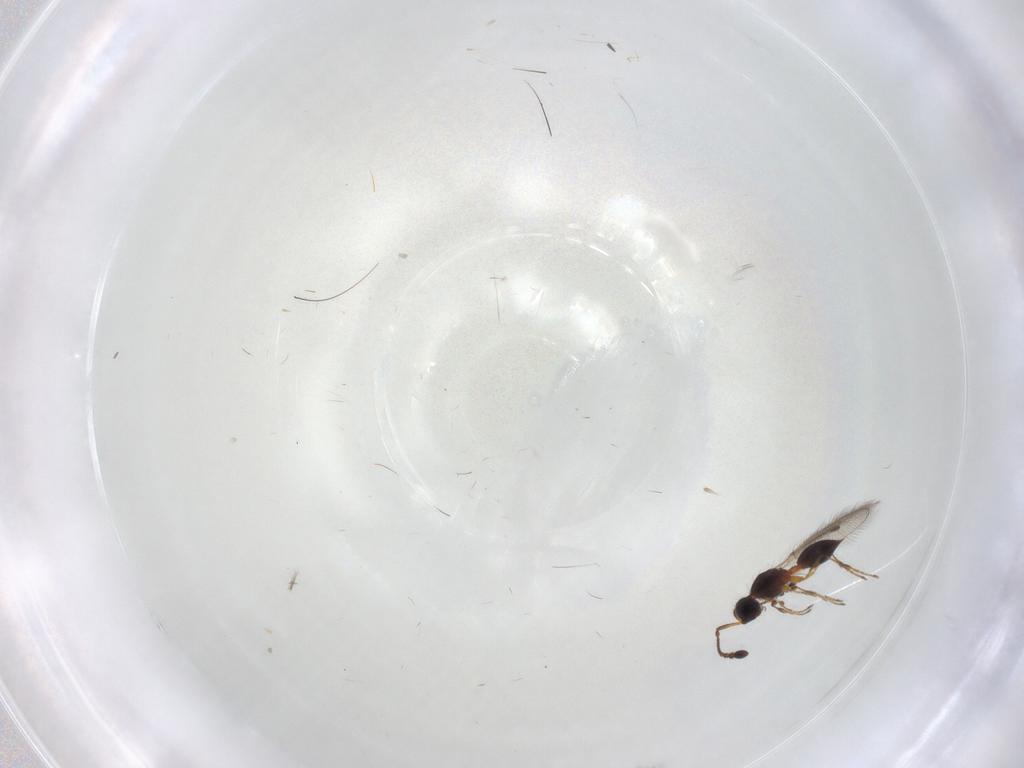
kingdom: Animalia
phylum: Arthropoda
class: Insecta
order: Hymenoptera
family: Diapriidae
